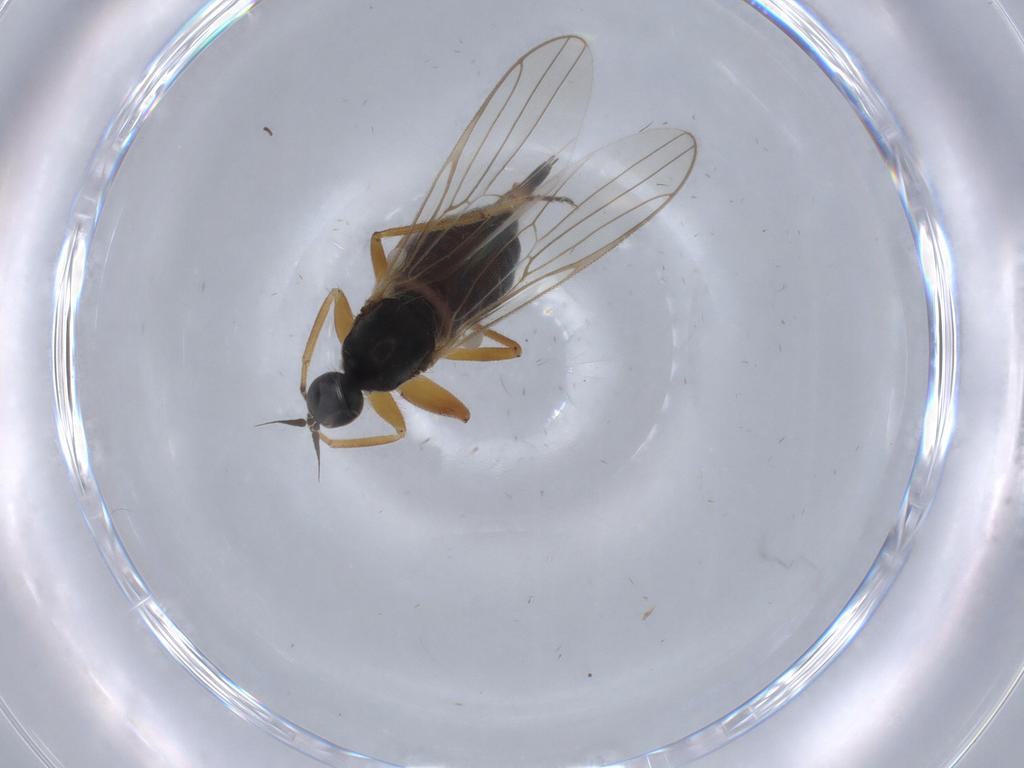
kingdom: Animalia
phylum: Arthropoda
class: Insecta
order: Diptera
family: Hybotidae
